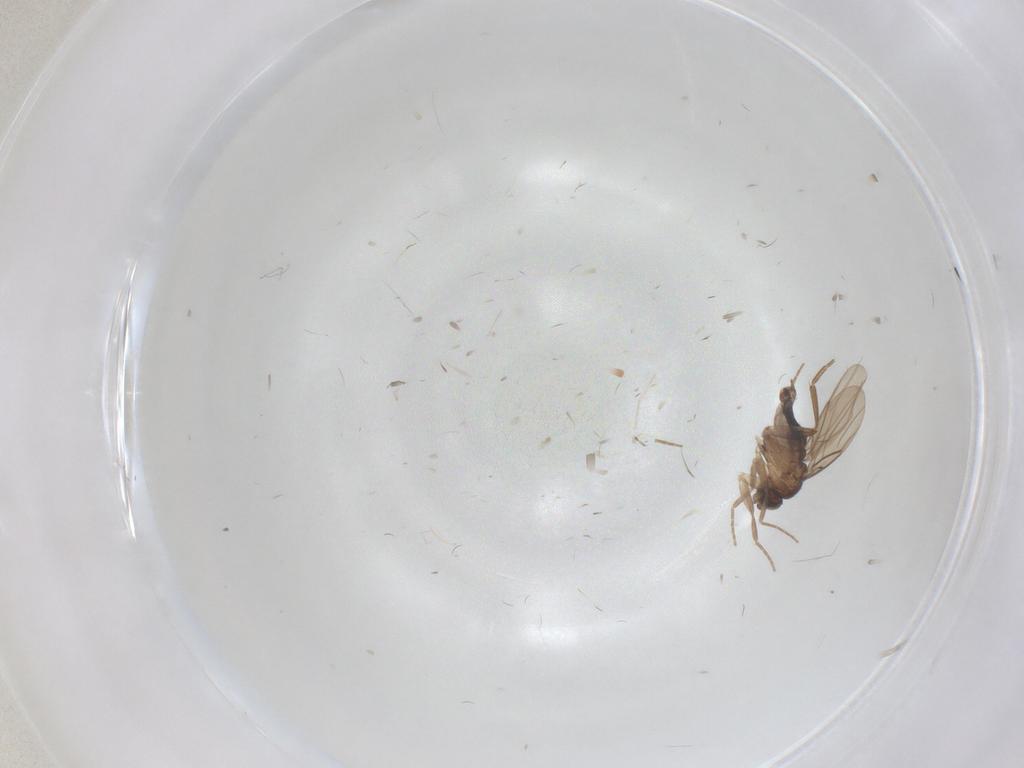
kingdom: Animalia
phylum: Arthropoda
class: Insecta
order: Diptera
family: Phoridae
